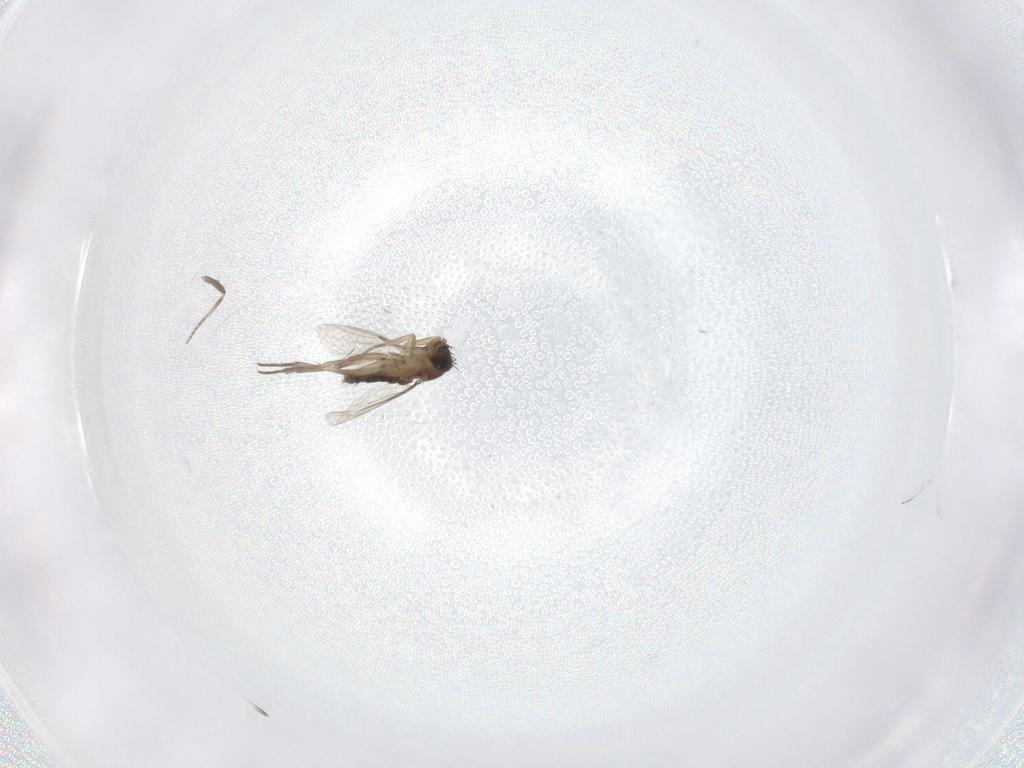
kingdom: Animalia
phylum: Arthropoda
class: Insecta
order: Diptera
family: Phoridae
